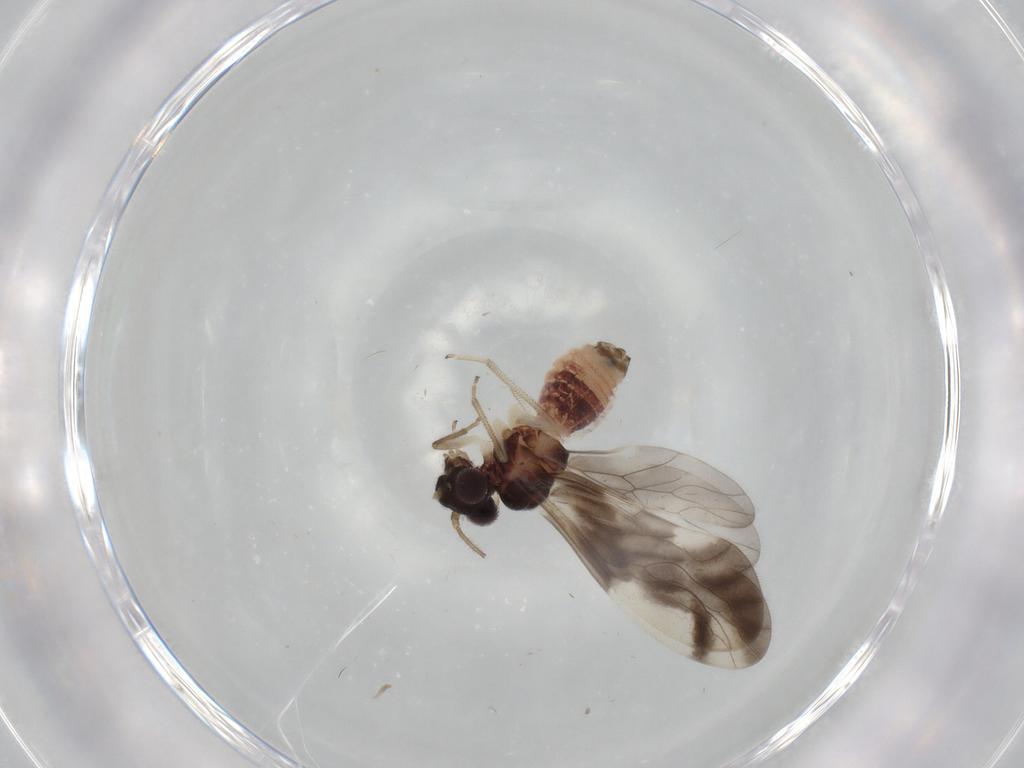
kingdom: Animalia
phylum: Arthropoda
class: Insecta
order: Psocodea
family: Caeciliusidae
